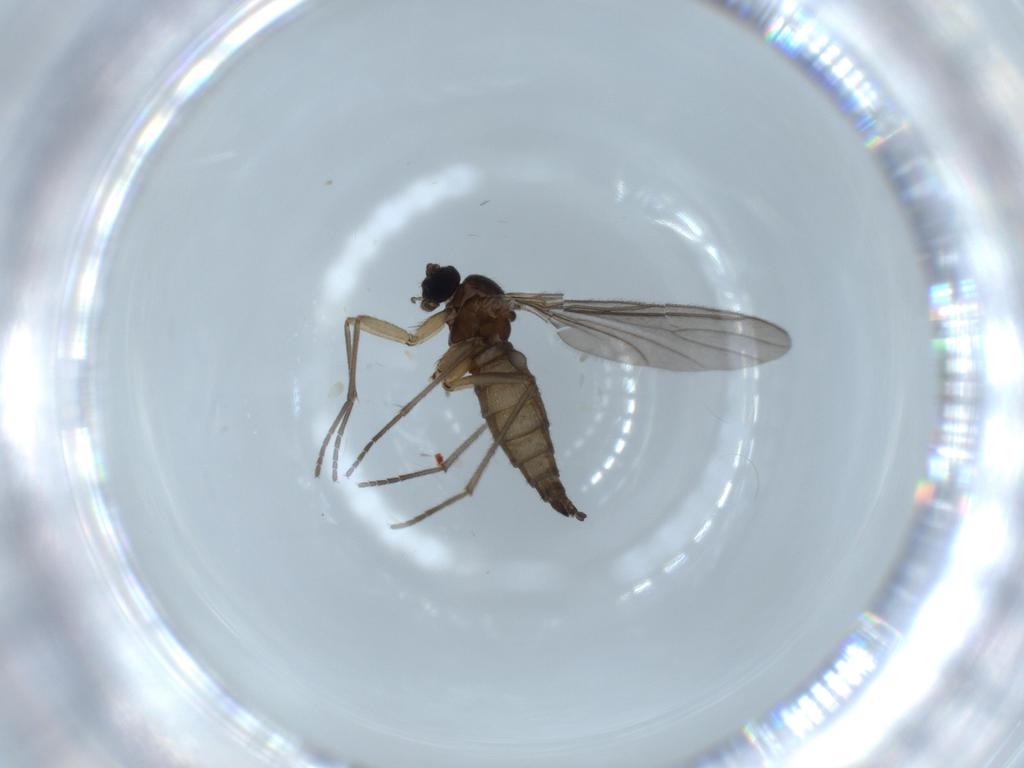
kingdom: Animalia
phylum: Arthropoda
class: Insecta
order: Diptera
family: Sciaridae
